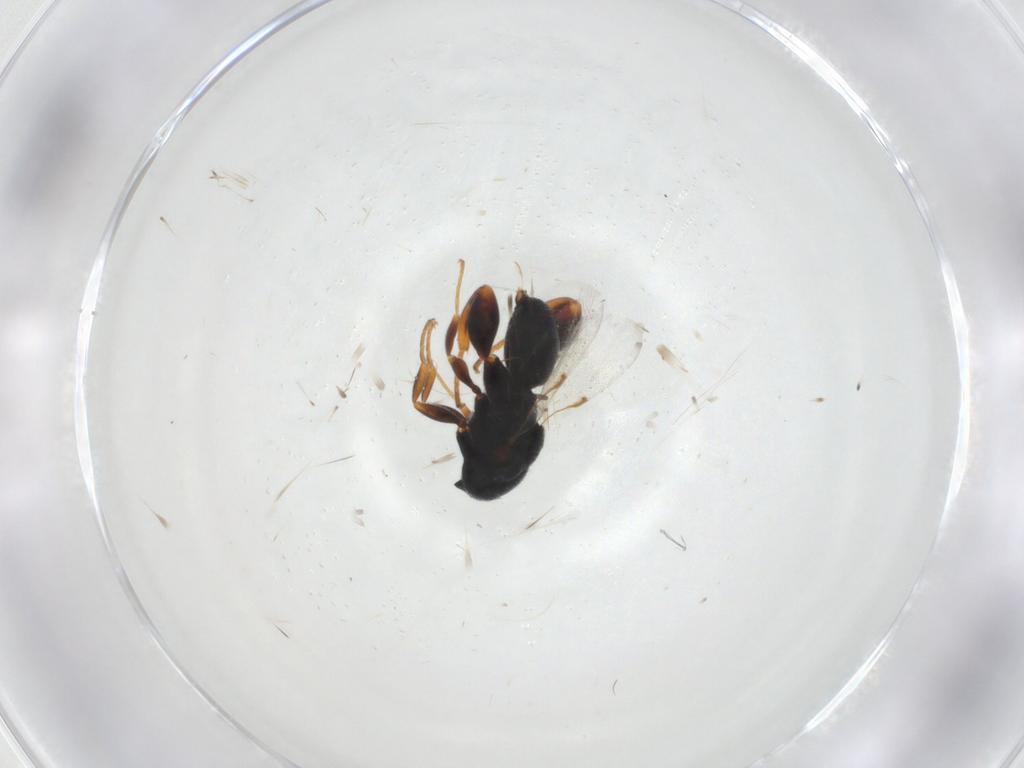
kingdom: Animalia
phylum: Arthropoda
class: Insecta
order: Hymenoptera
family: Chalcididae
